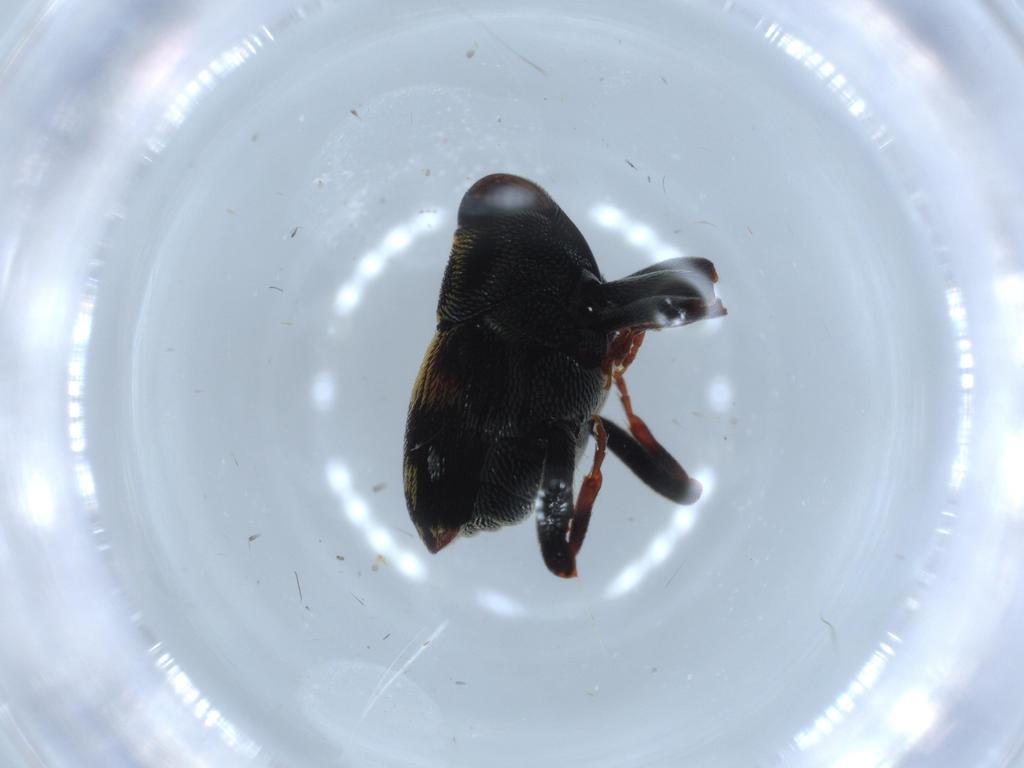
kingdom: Animalia
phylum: Arthropoda
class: Insecta
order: Coleoptera
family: Curculionidae
